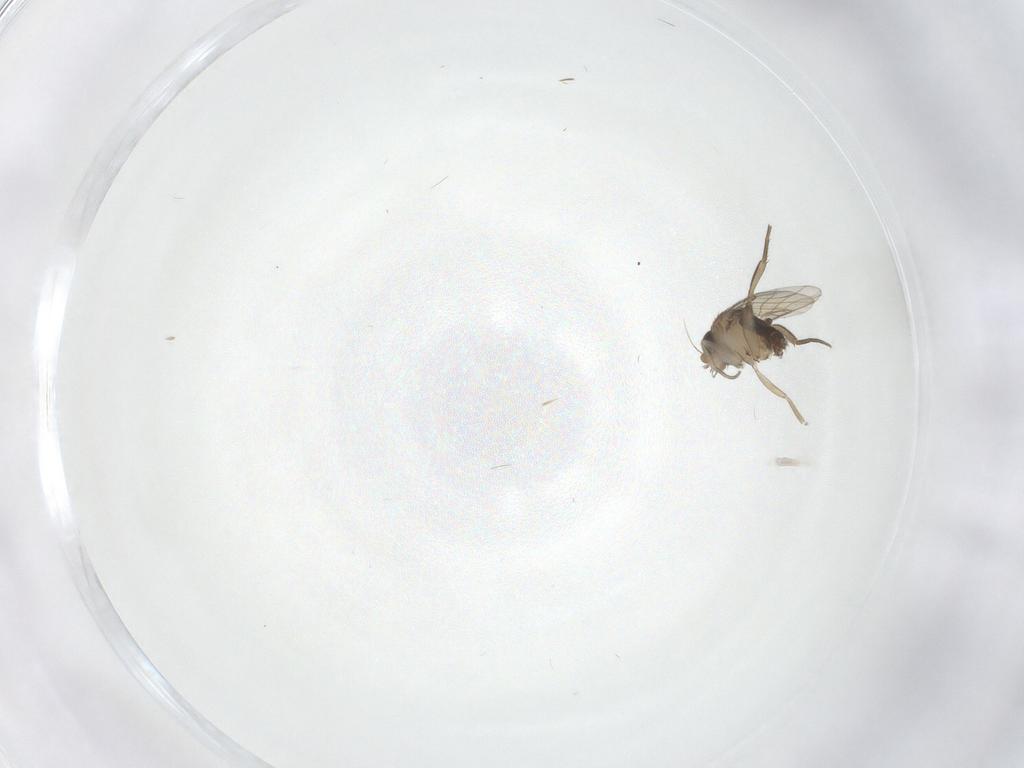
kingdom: Animalia
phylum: Arthropoda
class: Insecta
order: Diptera
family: Phoridae
